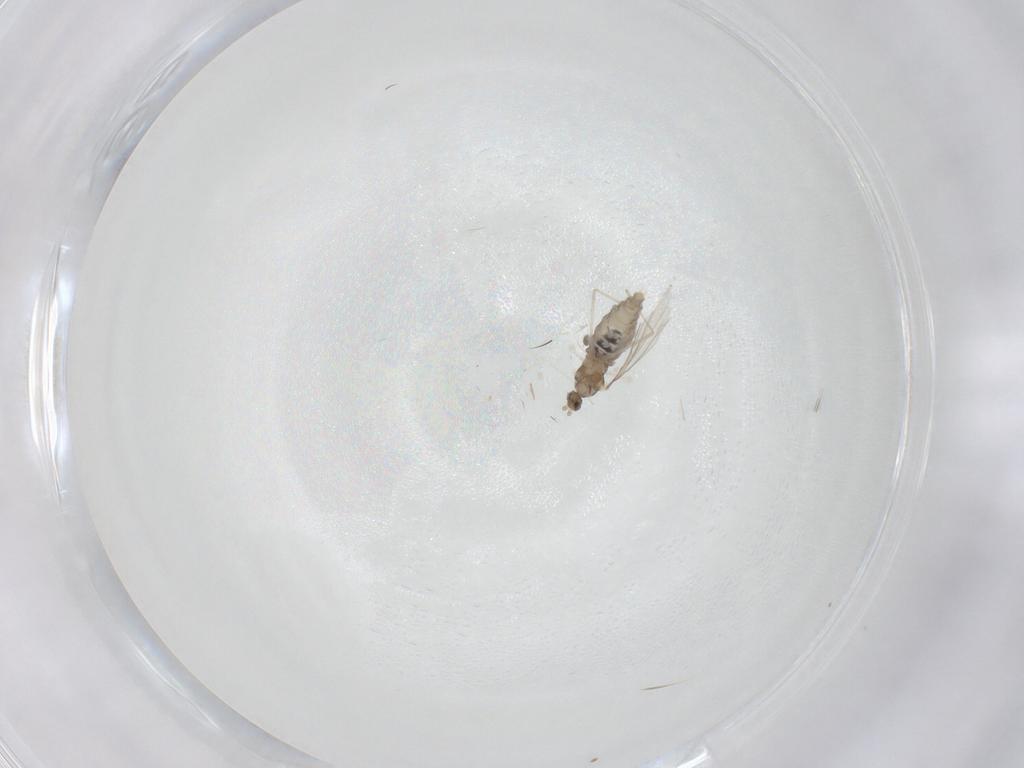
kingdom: Animalia
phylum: Arthropoda
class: Insecta
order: Diptera
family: Cecidomyiidae
